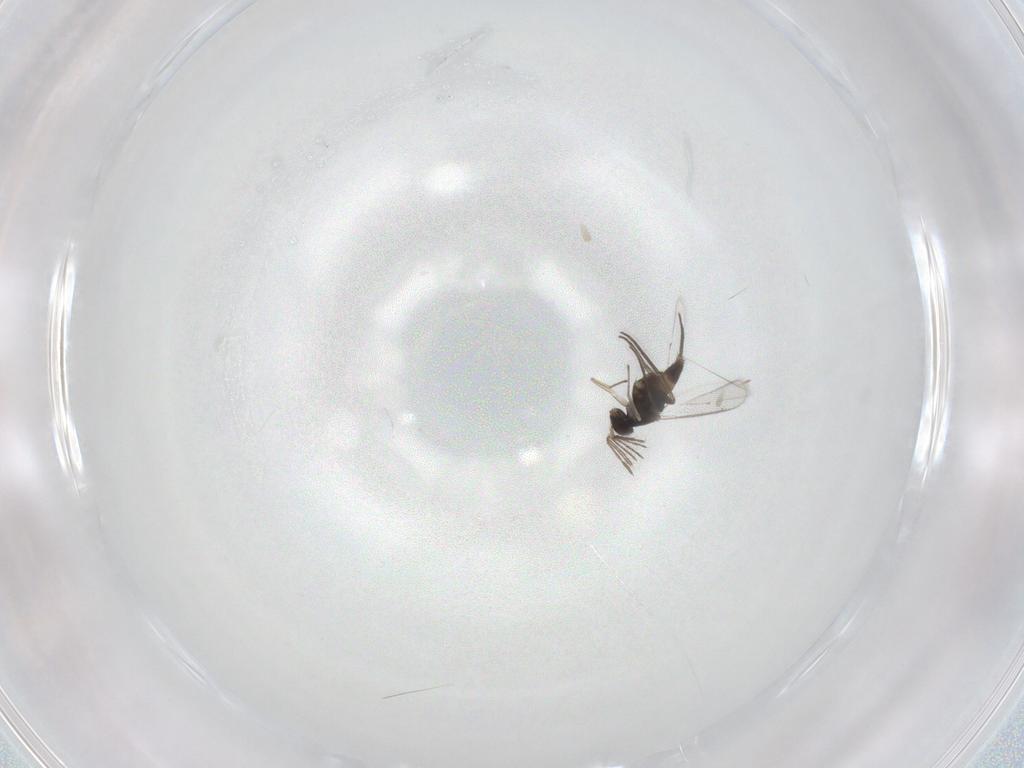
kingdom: Animalia
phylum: Arthropoda
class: Insecta
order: Hymenoptera
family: Eulophidae
